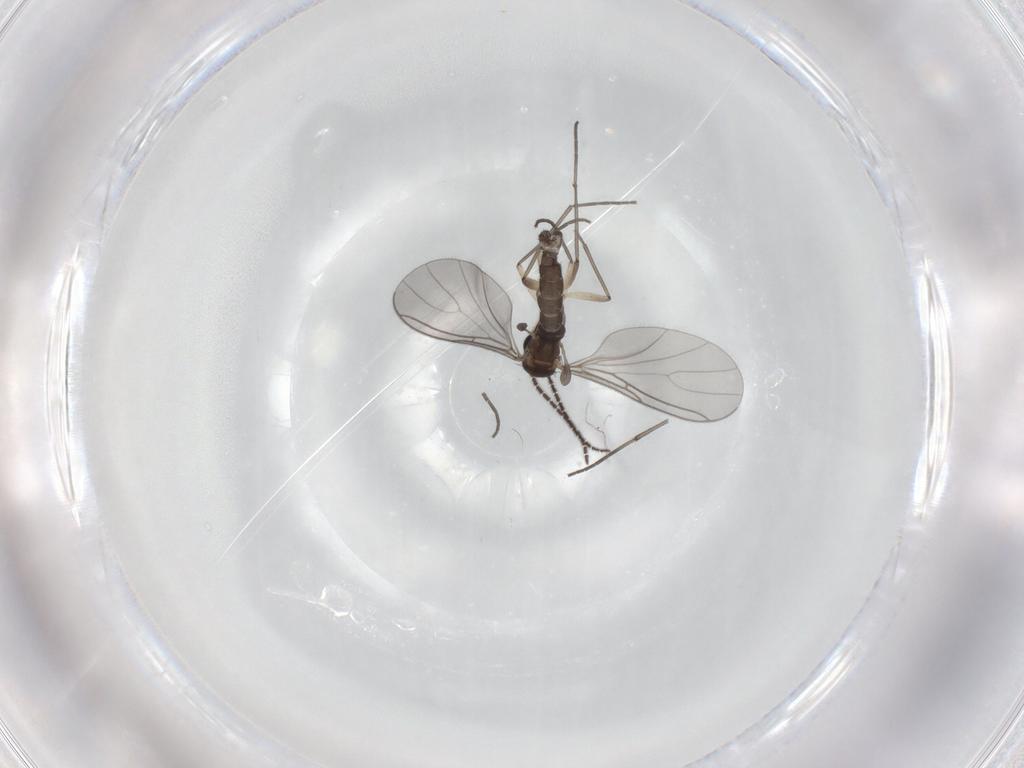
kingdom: Animalia
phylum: Arthropoda
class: Insecta
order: Diptera
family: Sciaridae
